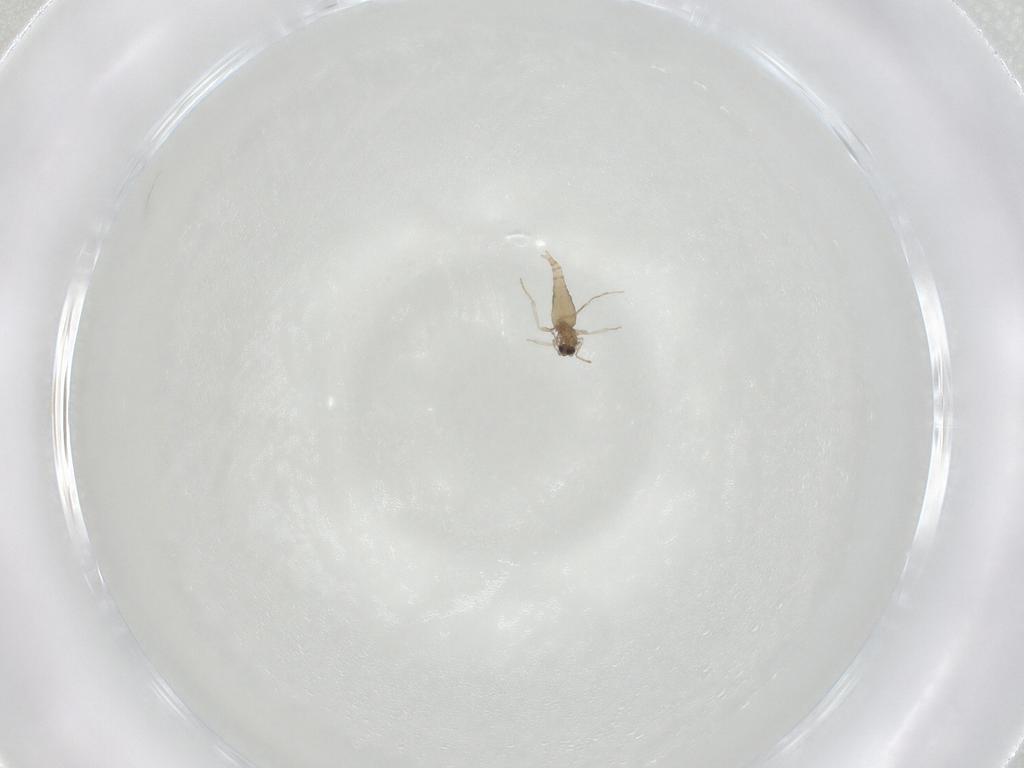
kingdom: Animalia
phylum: Arthropoda
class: Insecta
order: Diptera
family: Cecidomyiidae
